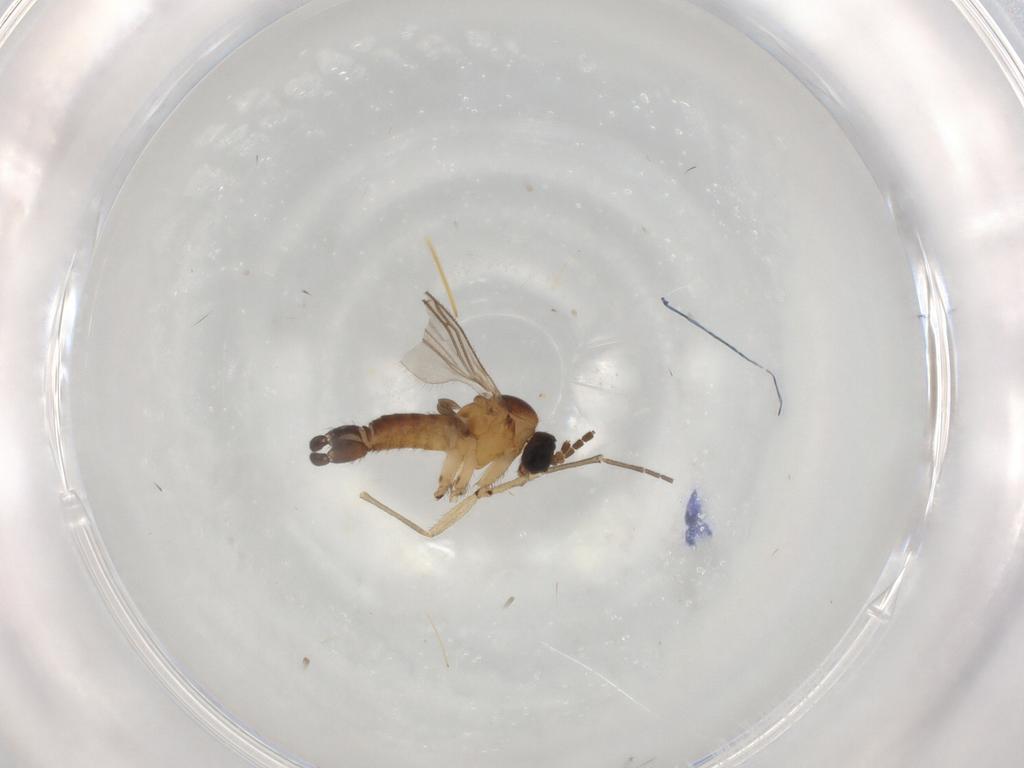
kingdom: Animalia
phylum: Arthropoda
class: Insecta
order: Diptera
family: Sciaridae
